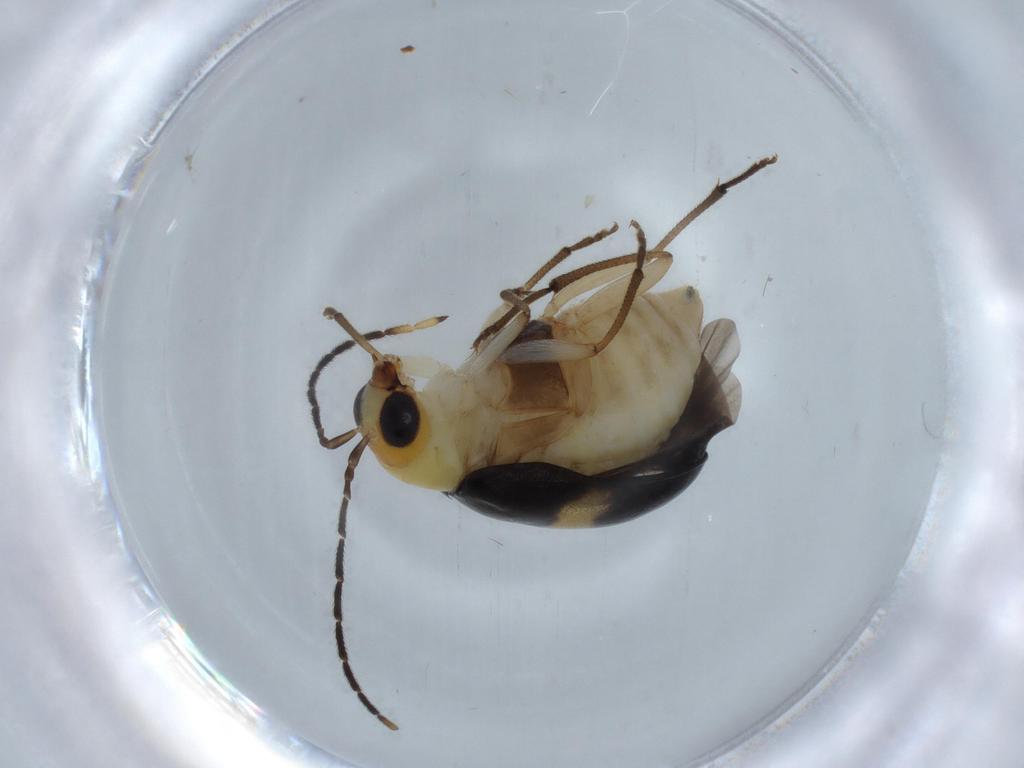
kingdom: Animalia
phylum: Arthropoda
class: Insecta
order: Coleoptera
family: Chrysomelidae
